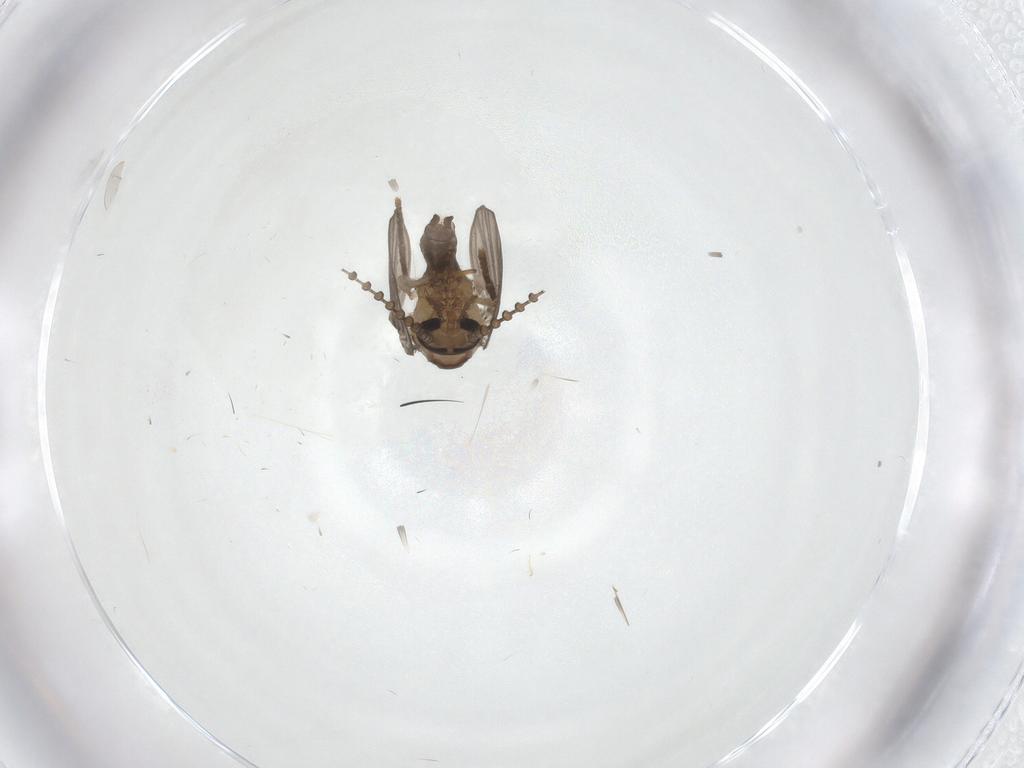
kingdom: Animalia
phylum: Arthropoda
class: Insecta
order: Diptera
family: Psychodidae
